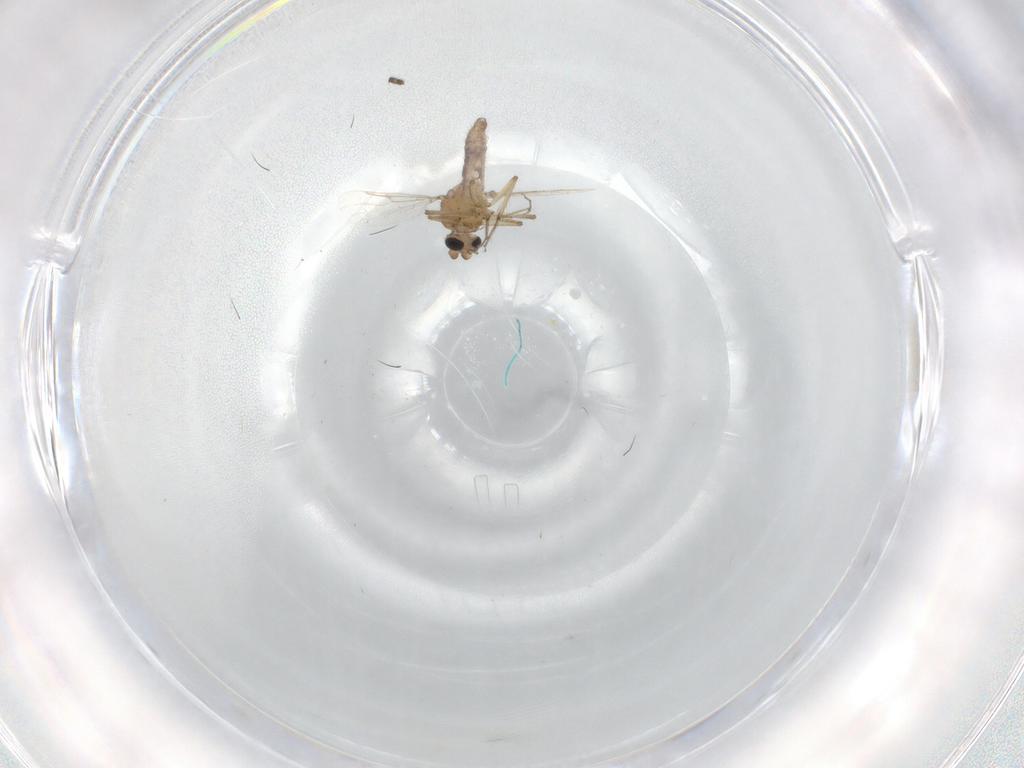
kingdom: Animalia
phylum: Arthropoda
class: Insecta
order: Diptera
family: Sciaridae
